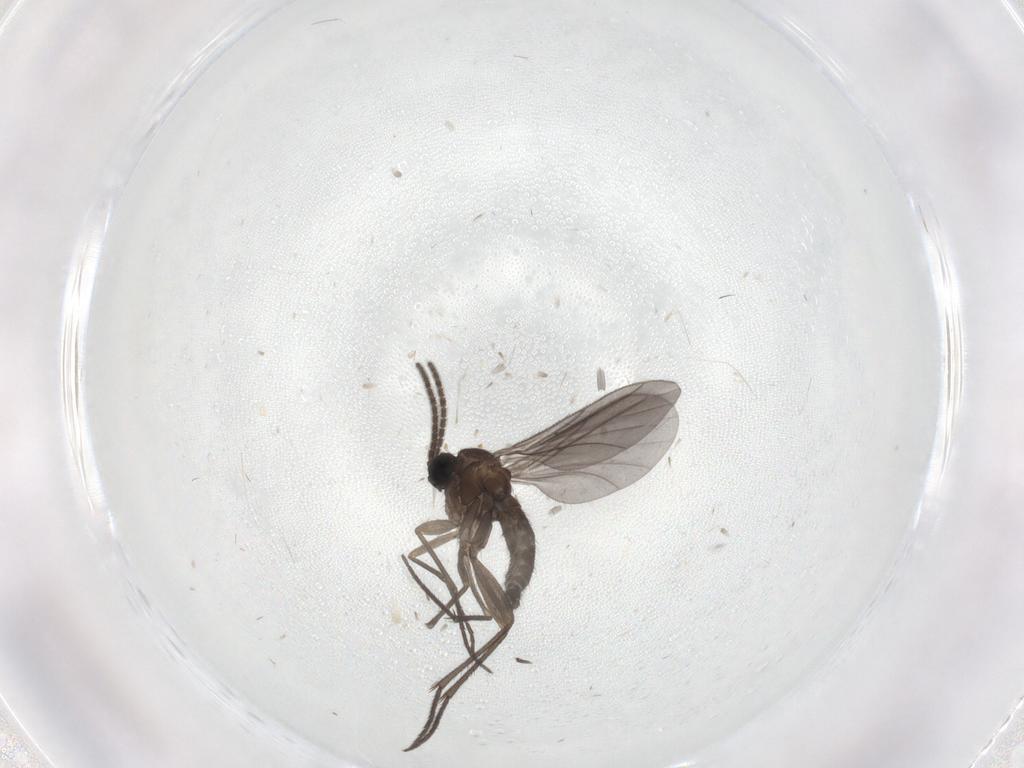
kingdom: Animalia
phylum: Arthropoda
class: Insecta
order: Diptera
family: Sciaridae
